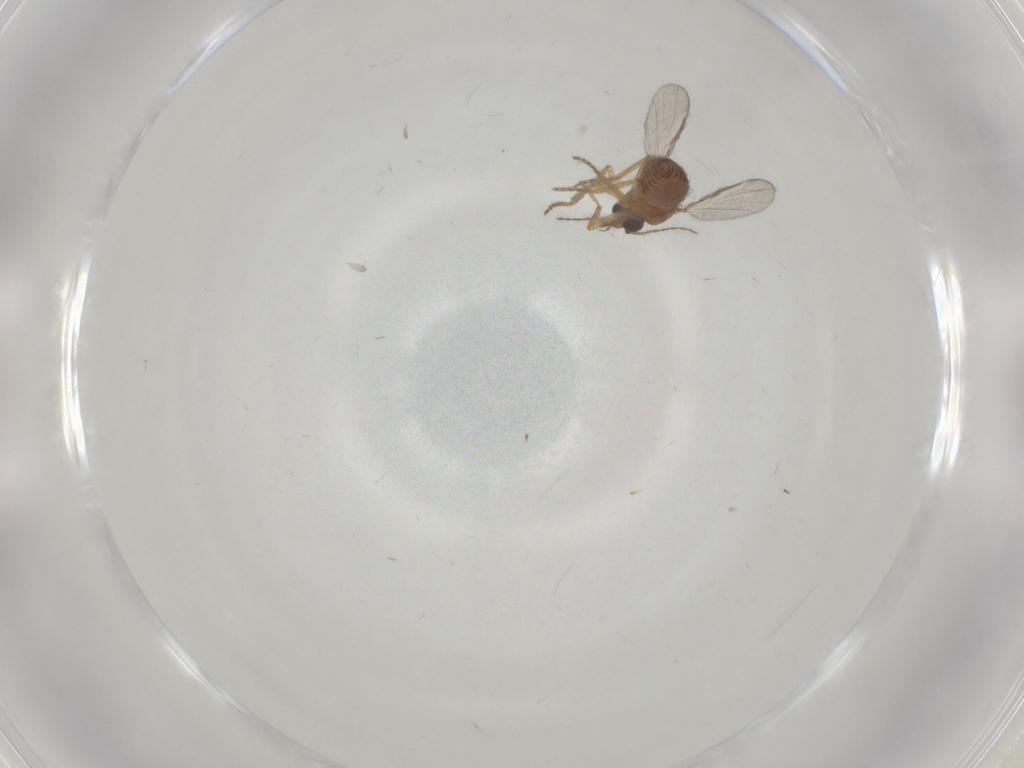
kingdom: Animalia
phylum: Arthropoda
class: Insecta
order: Diptera
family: Ceratopogonidae
